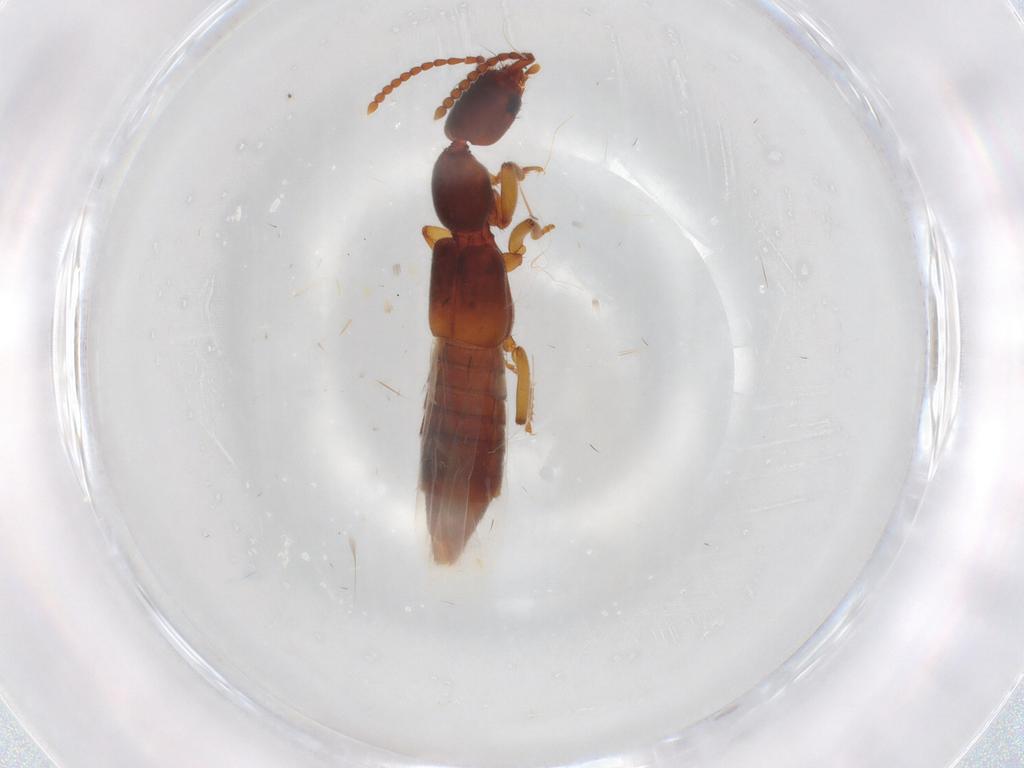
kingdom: Animalia
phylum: Arthropoda
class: Insecta
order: Coleoptera
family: Staphylinidae
